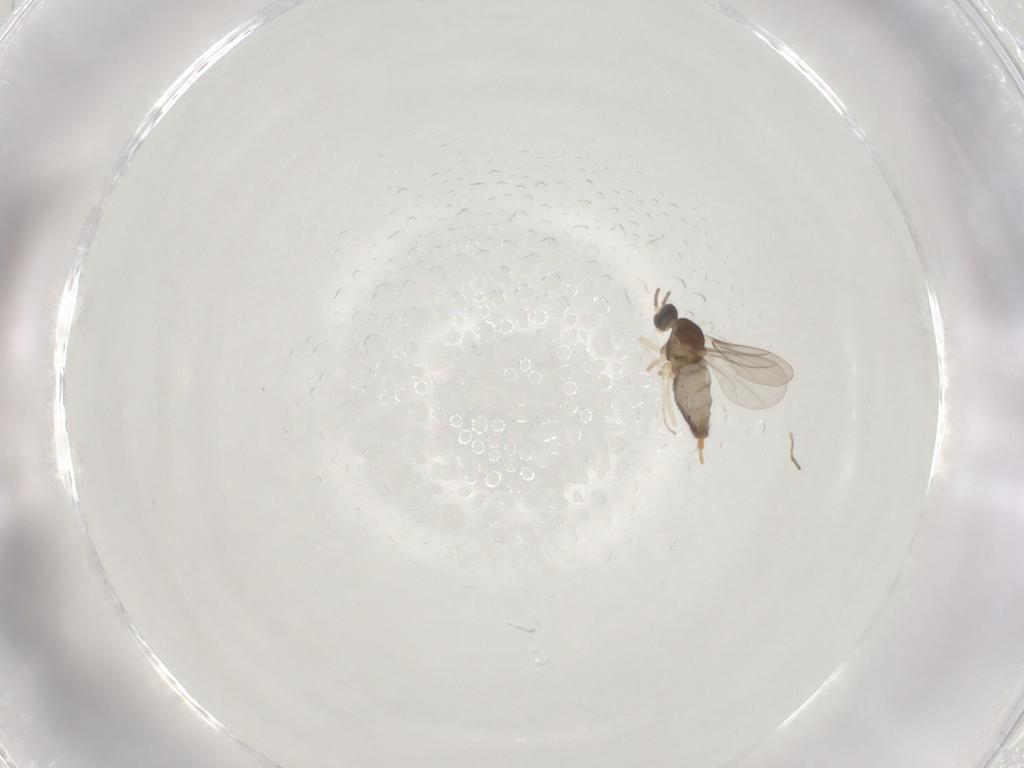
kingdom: Animalia
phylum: Arthropoda
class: Insecta
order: Diptera
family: Cecidomyiidae
